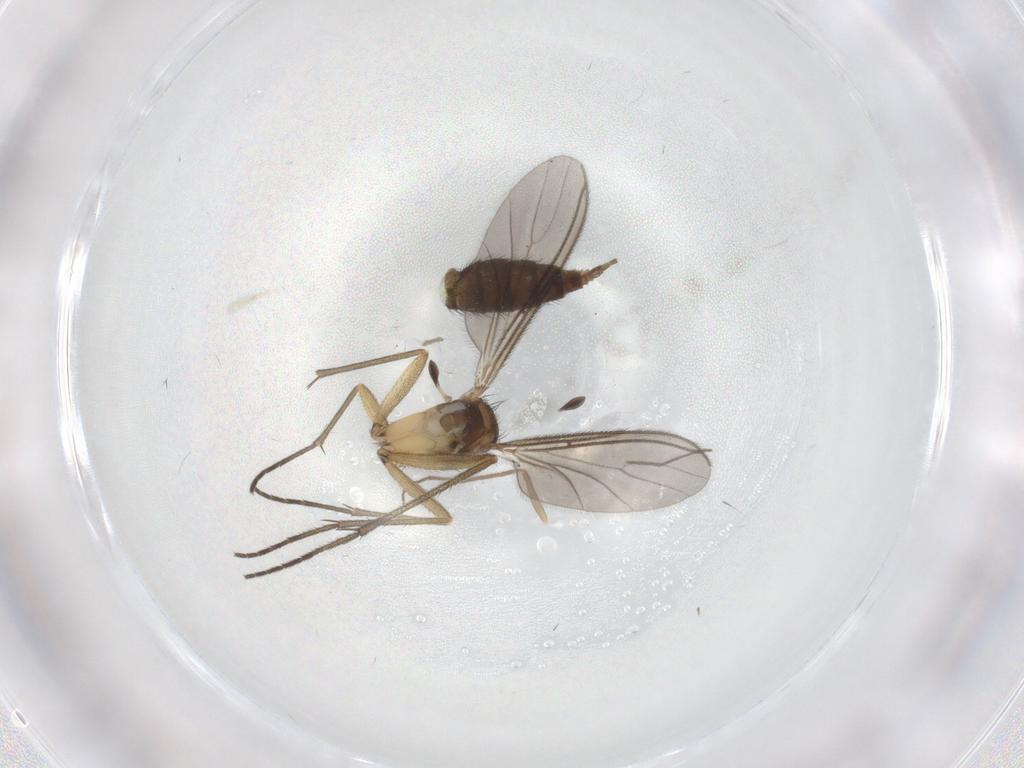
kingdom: Animalia
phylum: Arthropoda
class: Insecta
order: Diptera
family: Sciaridae
